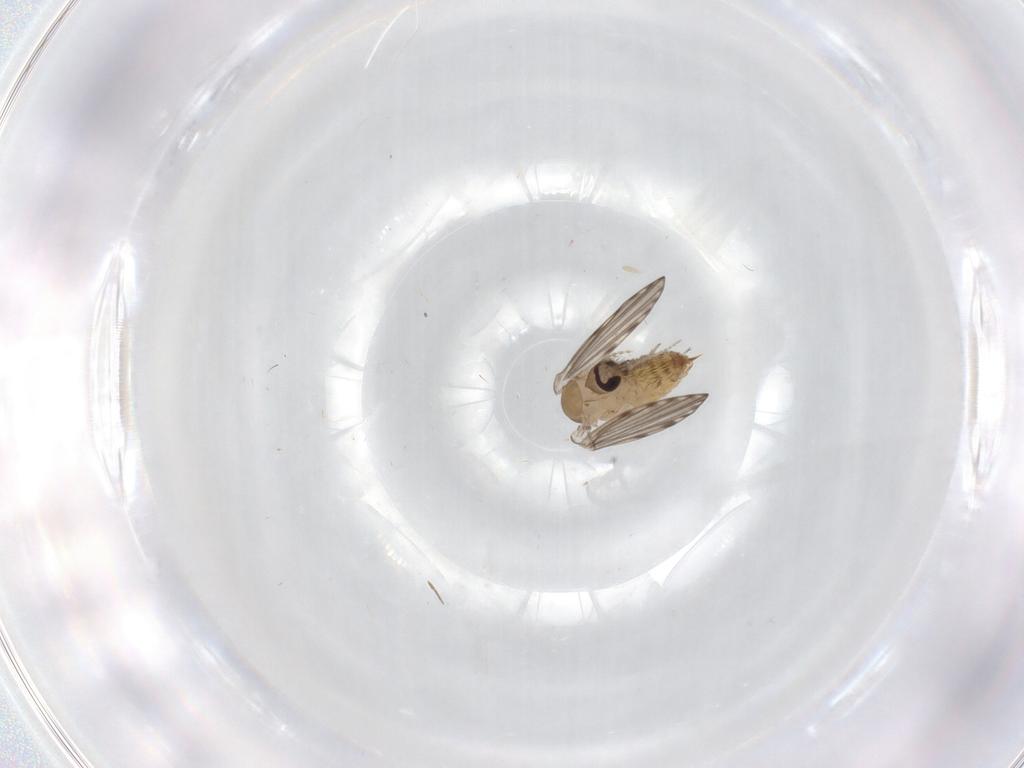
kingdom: Animalia
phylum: Arthropoda
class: Insecta
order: Diptera
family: Psychodidae
